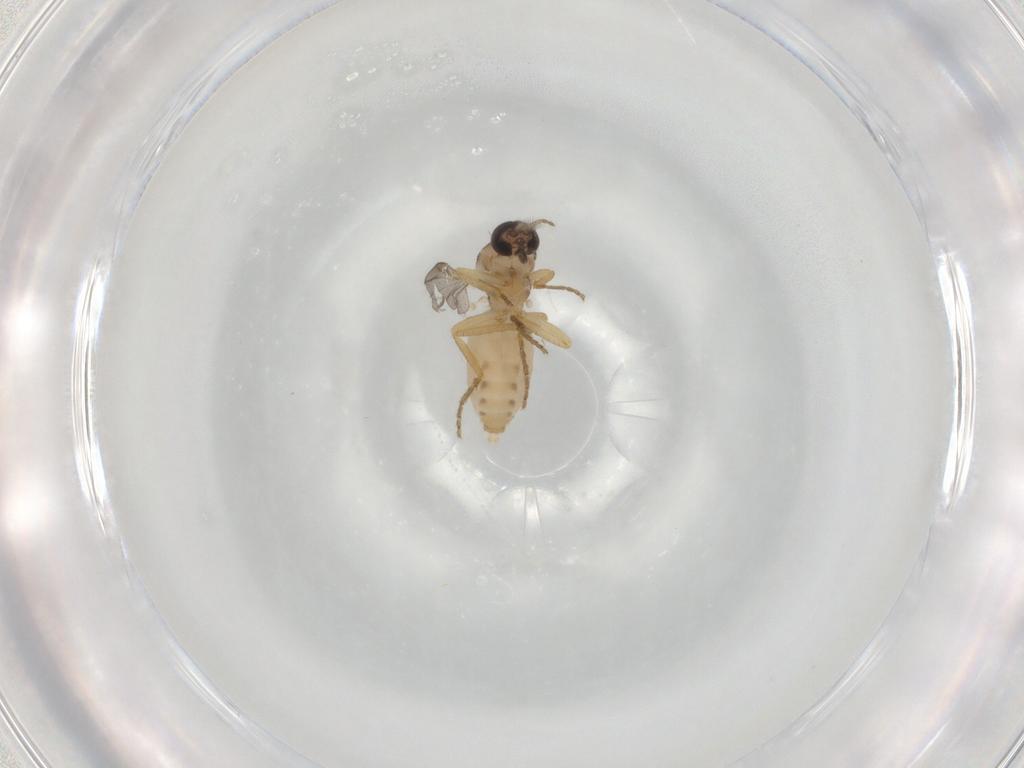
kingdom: Animalia
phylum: Arthropoda
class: Insecta
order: Diptera
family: Ceratopogonidae
